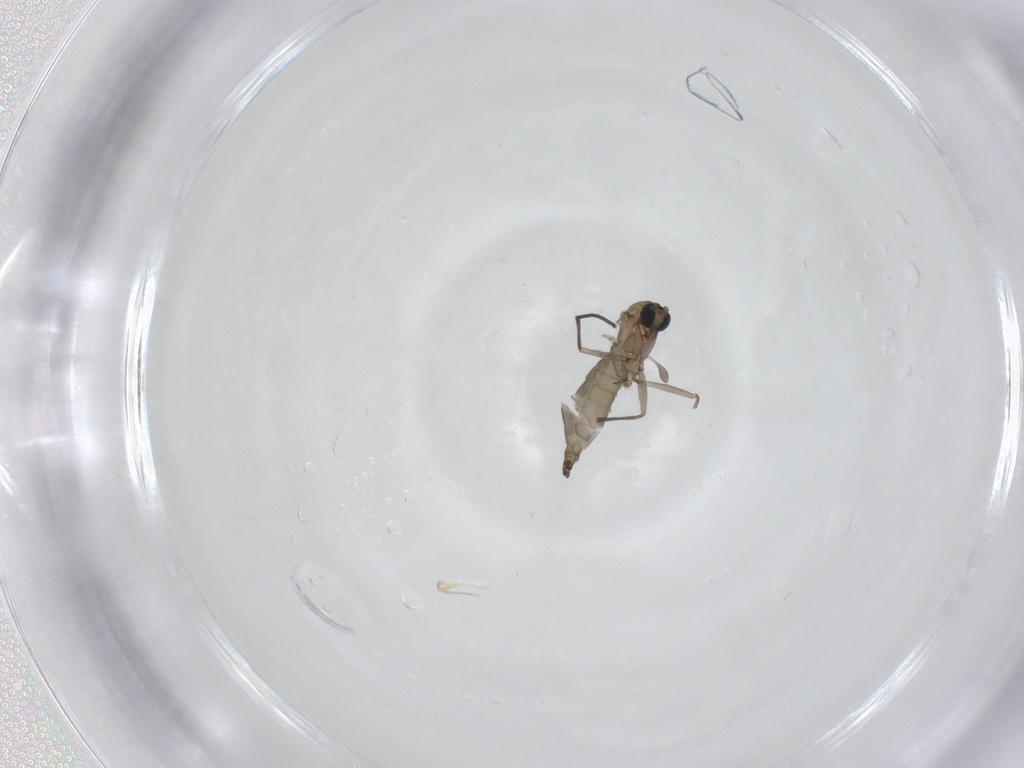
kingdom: Animalia
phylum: Arthropoda
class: Insecta
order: Diptera
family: Sciaridae
